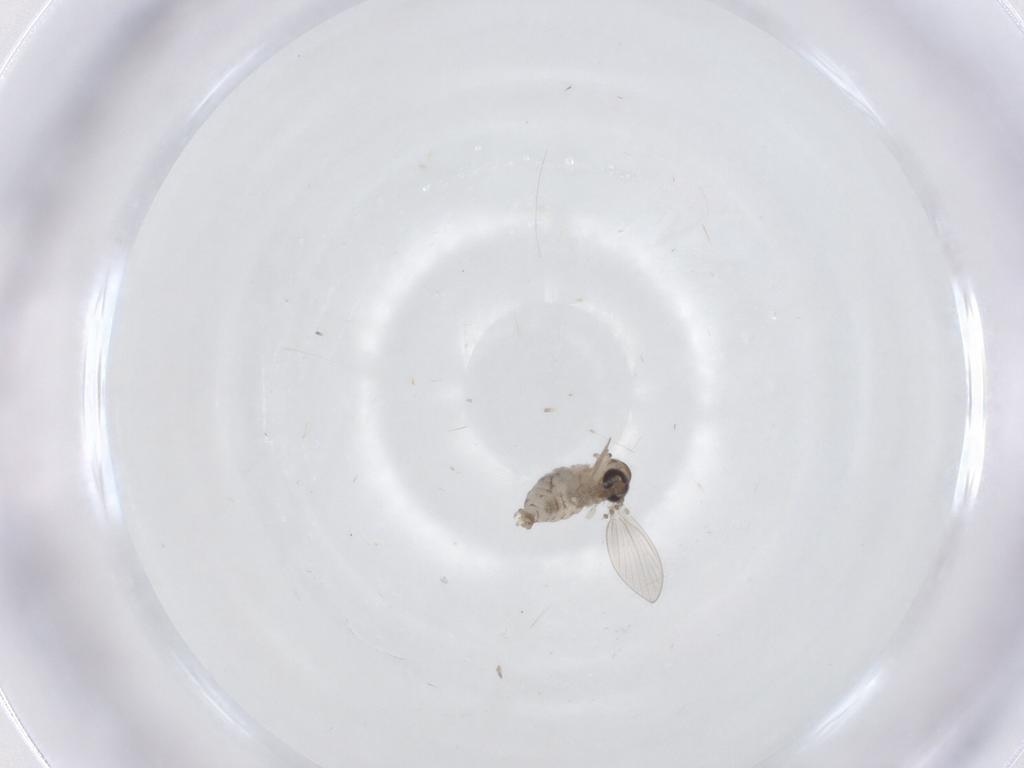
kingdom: Animalia
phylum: Arthropoda
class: Insecta
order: Diptera
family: Psychodidae
